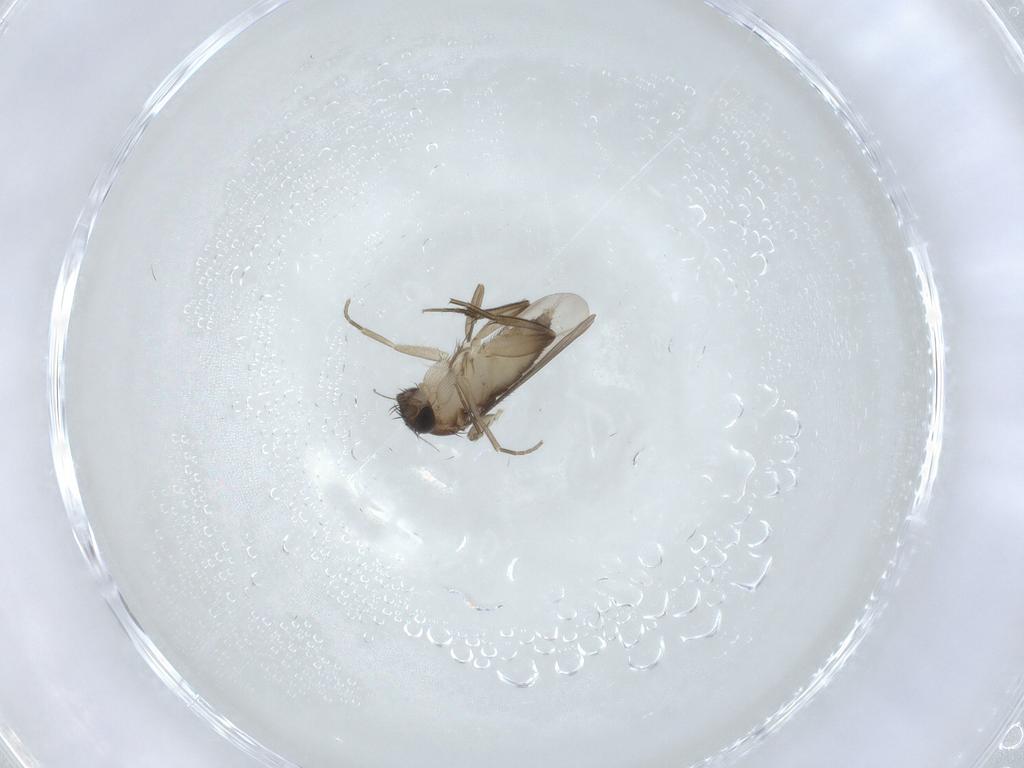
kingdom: Animalia
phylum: Arthropoda
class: Insecta
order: Diptera
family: Phoridae
